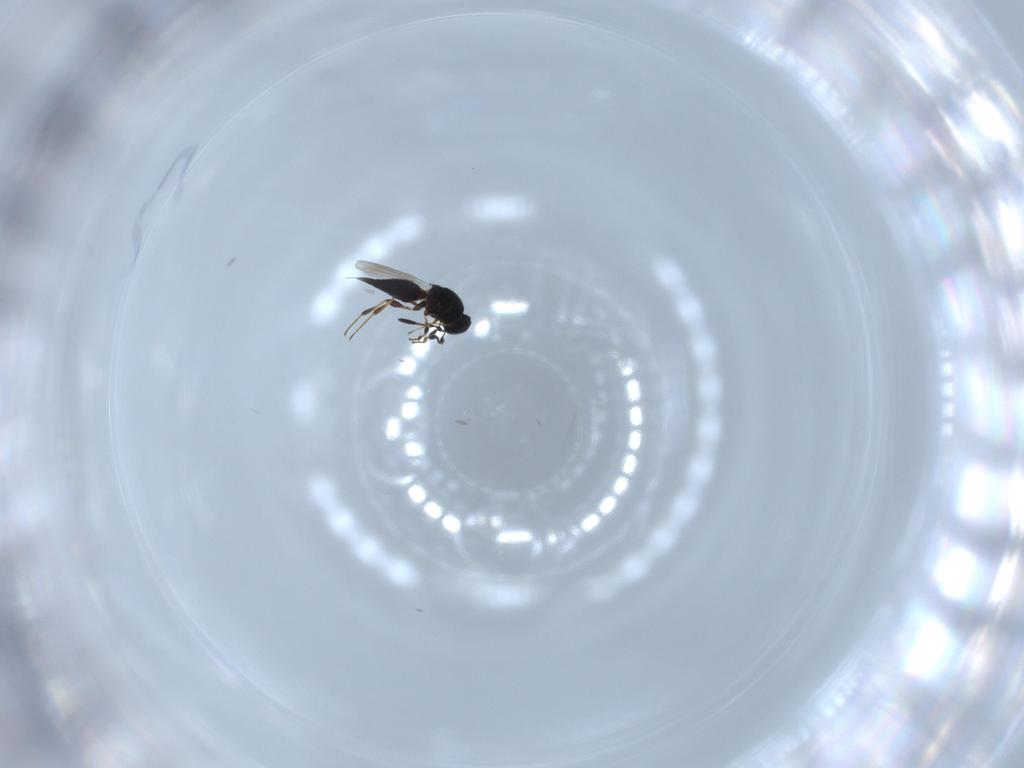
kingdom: Animalia
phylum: Arthropoda
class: Insecta
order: Hymenoptera
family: Platygastridae
